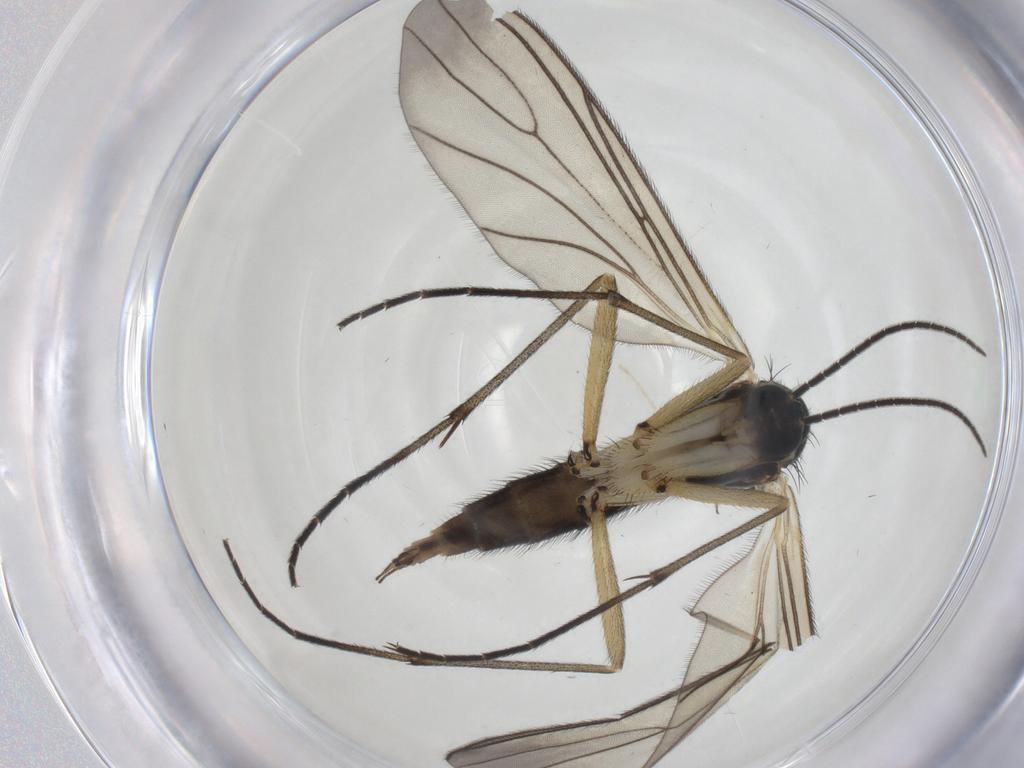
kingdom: Animalia
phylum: Arthropoda
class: Insecta
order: Diptera
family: Sciaridae
